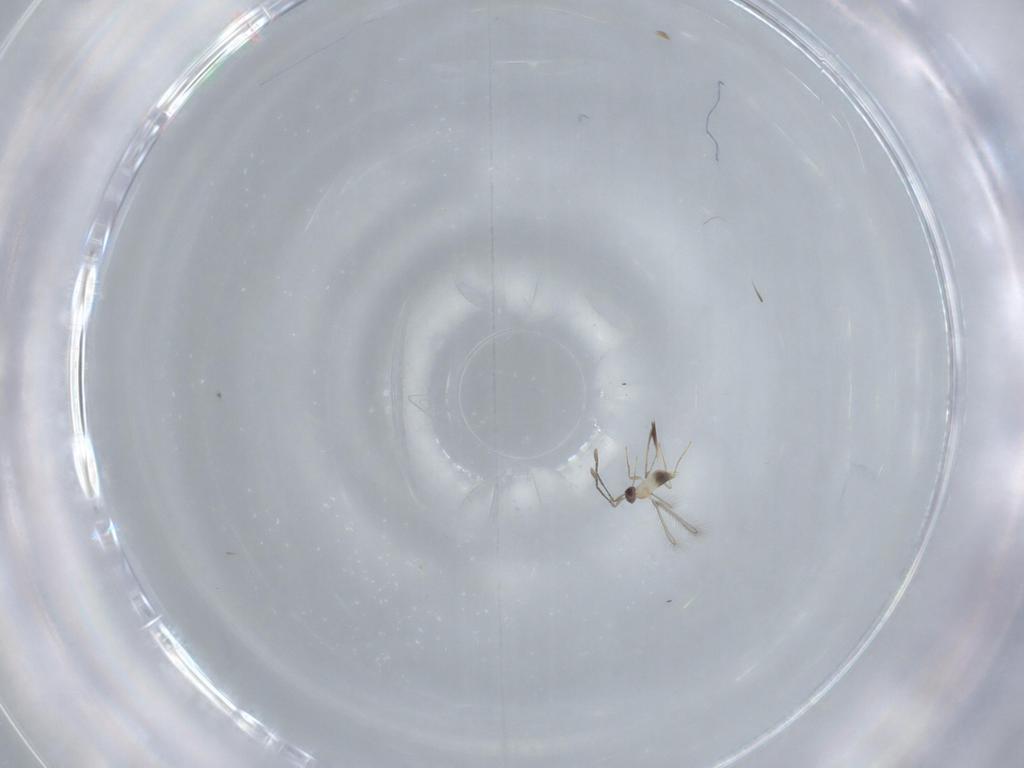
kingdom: Animalia
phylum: Arthropoda
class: Insecta
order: Hymenoptera
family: Mymaridae
